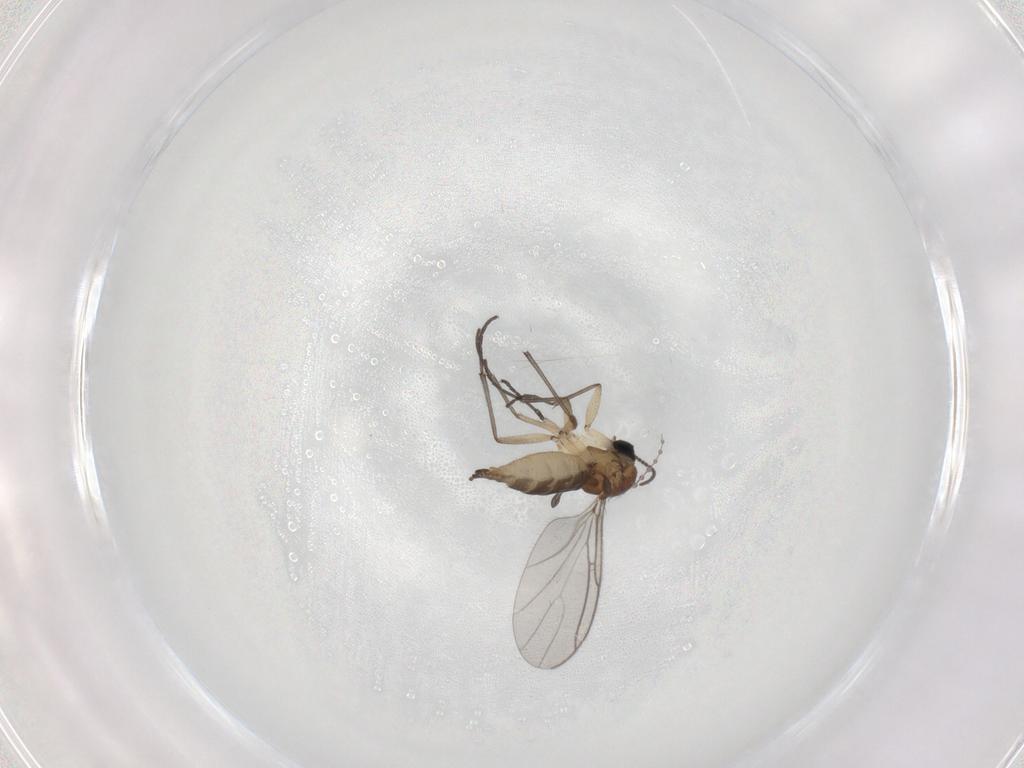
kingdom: Animalia
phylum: Arthropoda
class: Insecta
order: Diptera
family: Sciaridae
